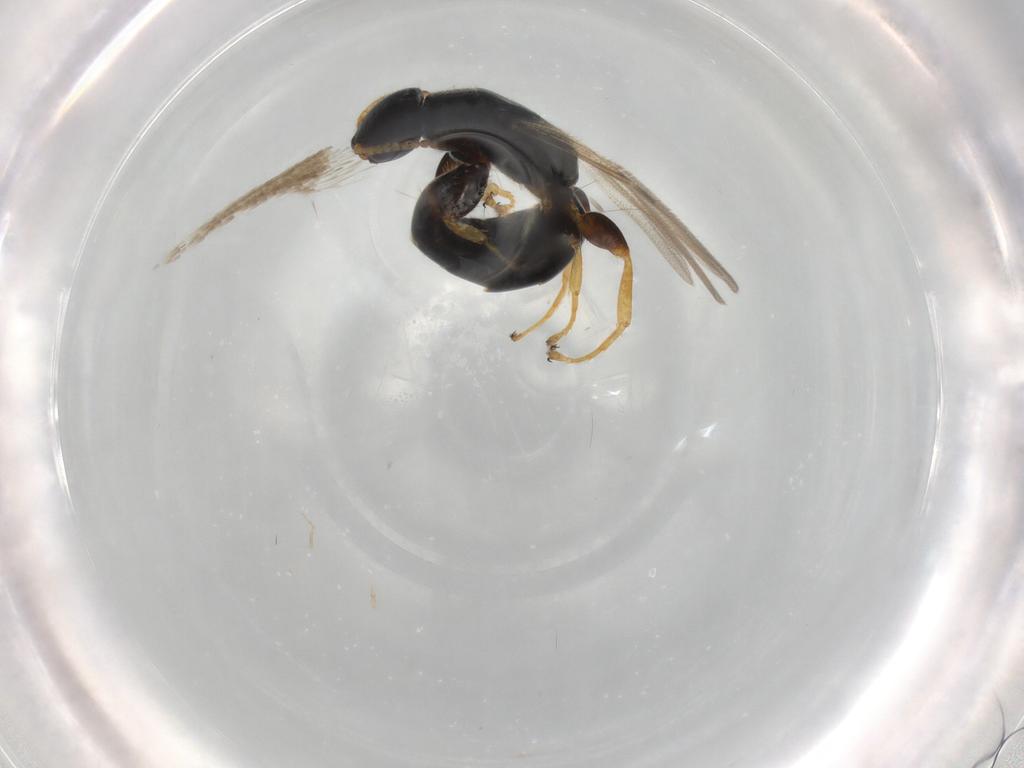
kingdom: Animalia
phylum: Arthropoda
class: Insecta
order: Hymenoptera
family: Bethylidae
